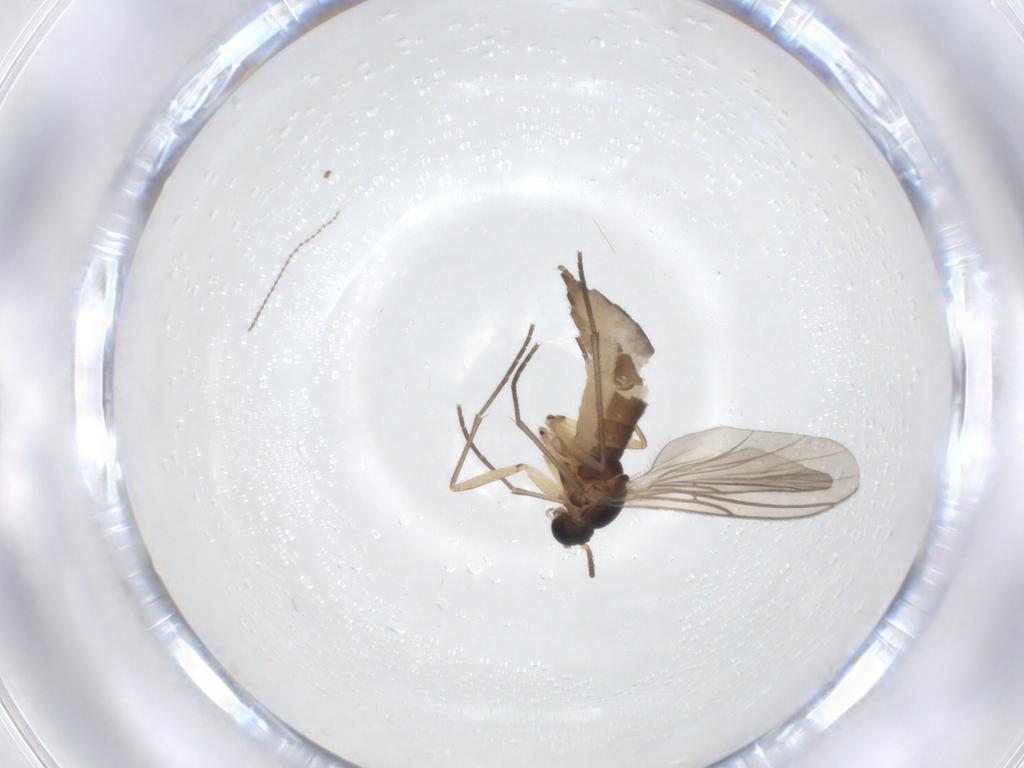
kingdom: Animalia
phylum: Arthropoda
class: Insecta
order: Diptera
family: Sciaridae
